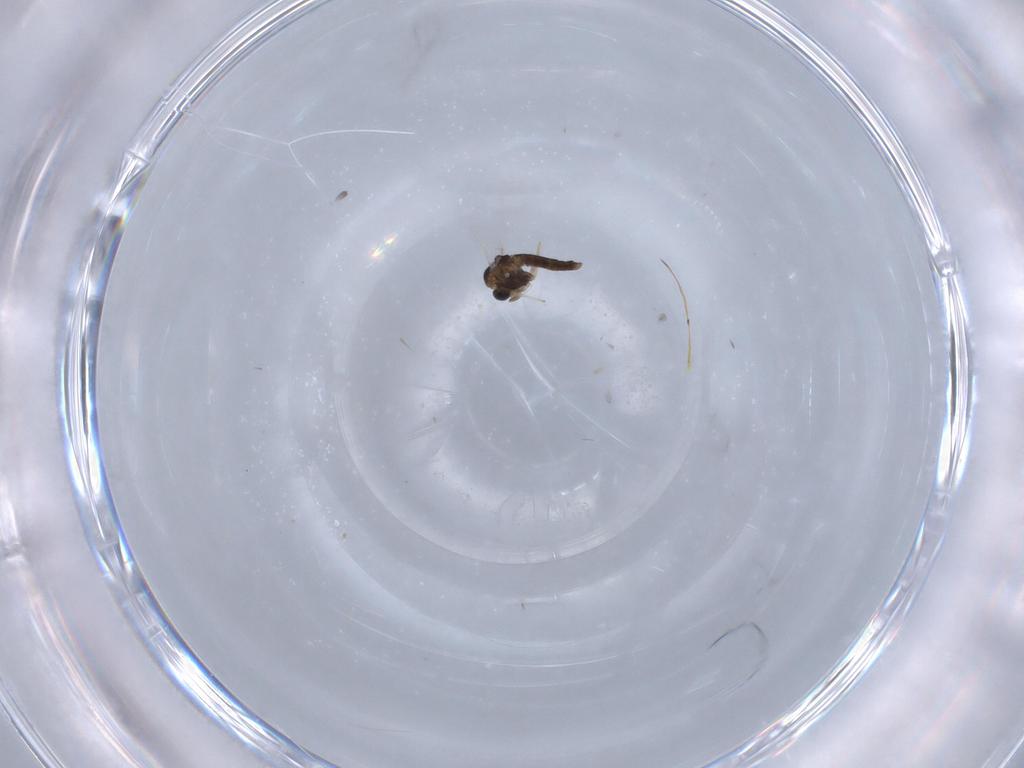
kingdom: Animalia
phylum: Arthropoda
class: Insecta
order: Diptera
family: Chironomidae
